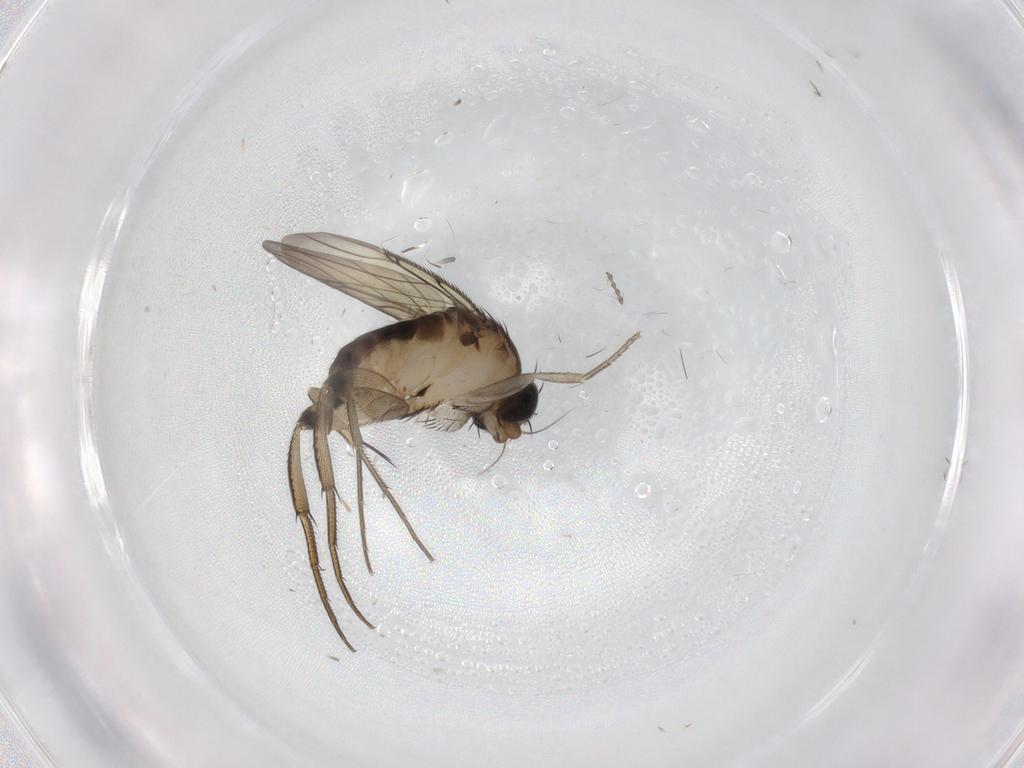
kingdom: Animalia
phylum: Arthropoda
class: Insecta
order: Diptera
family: Phoridae
